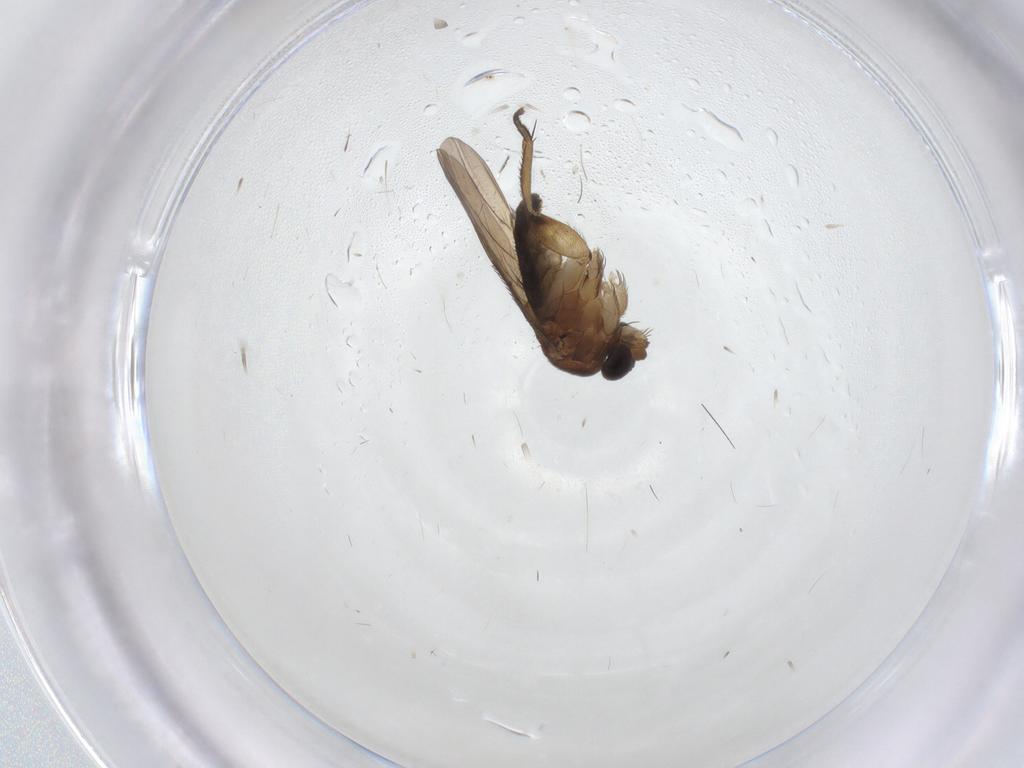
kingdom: Animalia
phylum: Arthropoda
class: Insecta
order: Diptera
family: Phoridae
